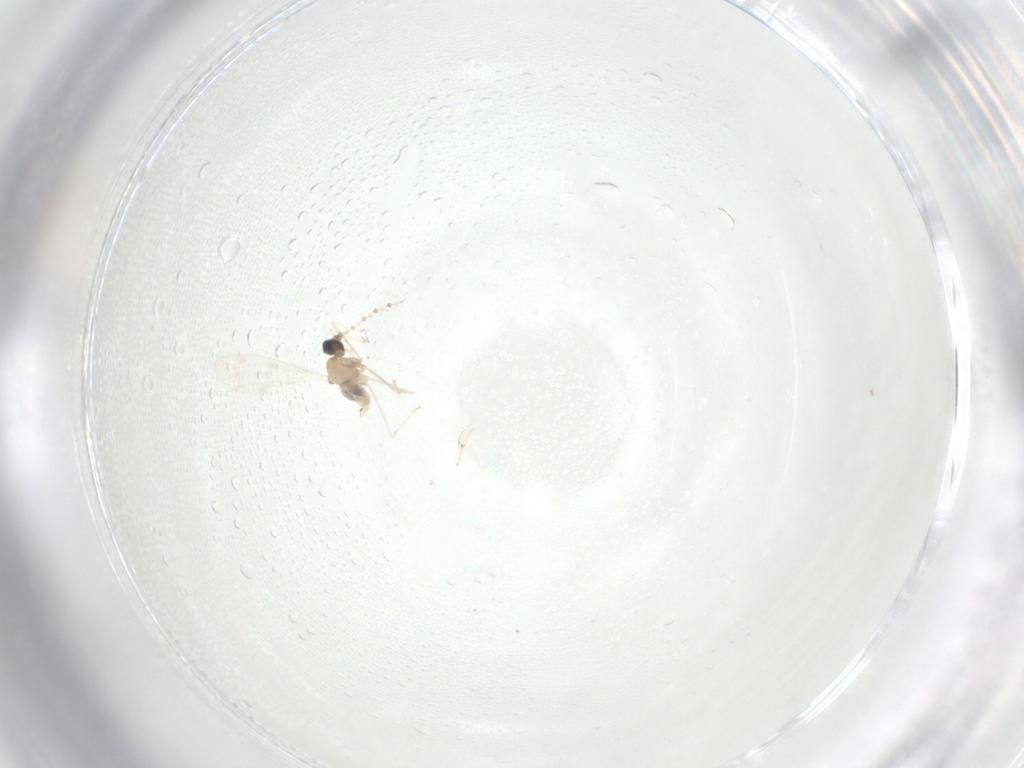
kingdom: Animalia
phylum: Arthropoda
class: Insecta
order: Diptera
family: Cecidomyiidae
